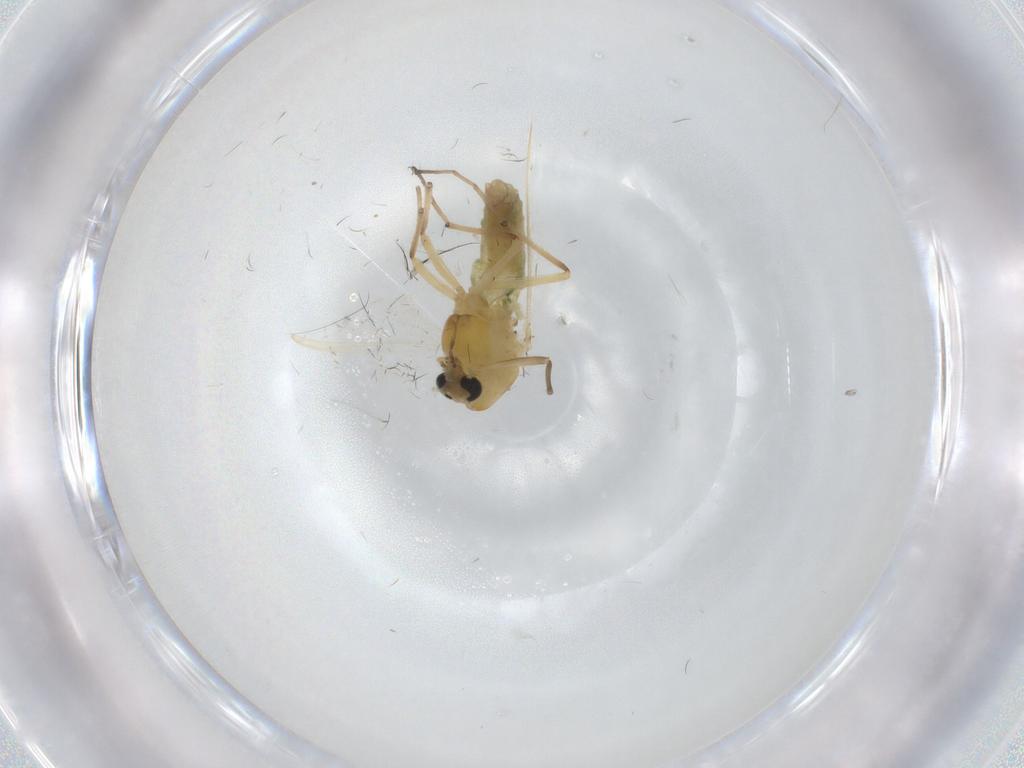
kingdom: Animalia
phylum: Arthropoda
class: Insecta
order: Diptera
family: Chironomidae
